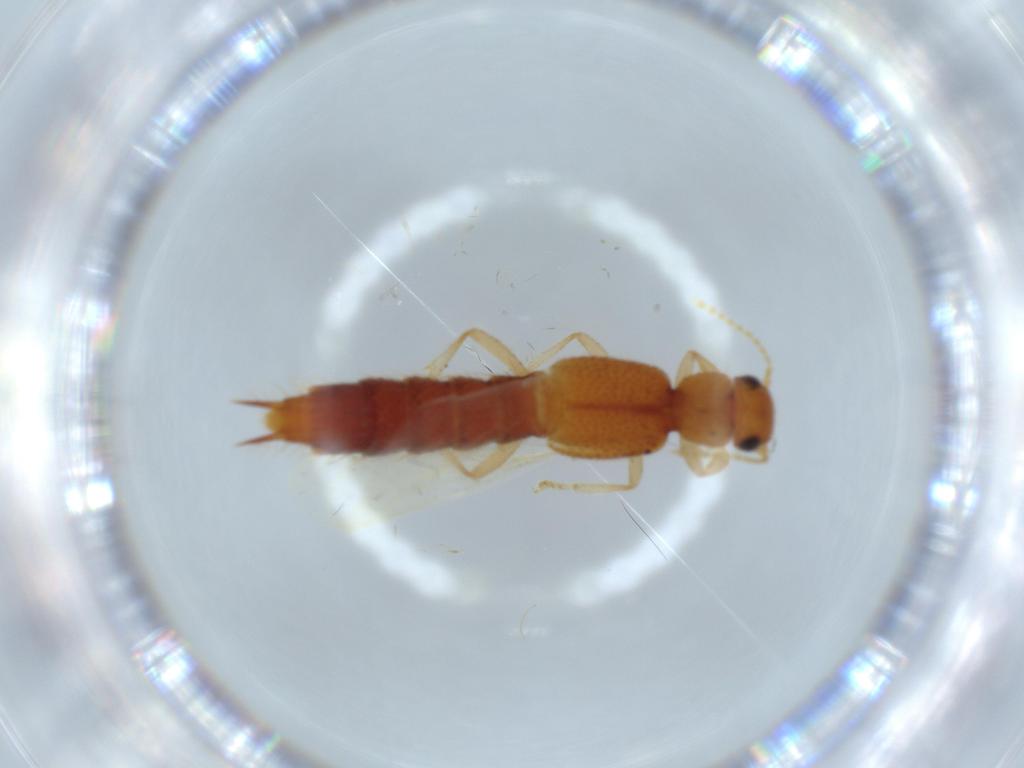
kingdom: Animalia
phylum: Arthropoda
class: Insecta
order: Coleoptera
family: Staphylinidae
